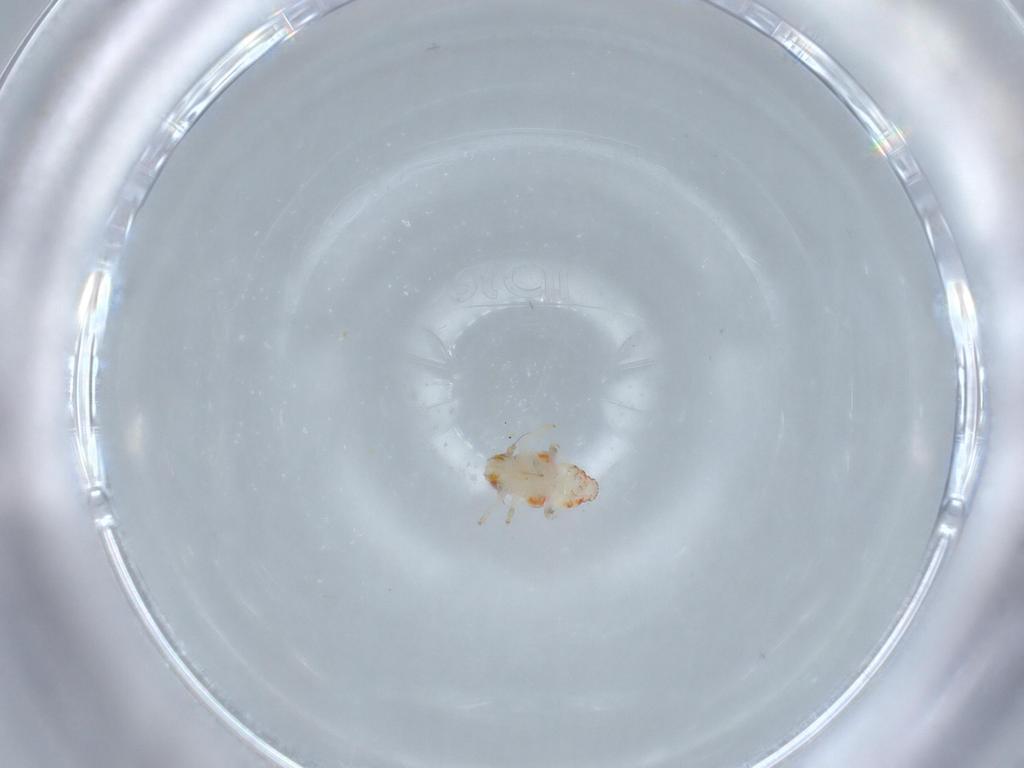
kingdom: Animalia
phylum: Arthropoda
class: Insecta
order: Hemiptera
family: Nogodinidae
